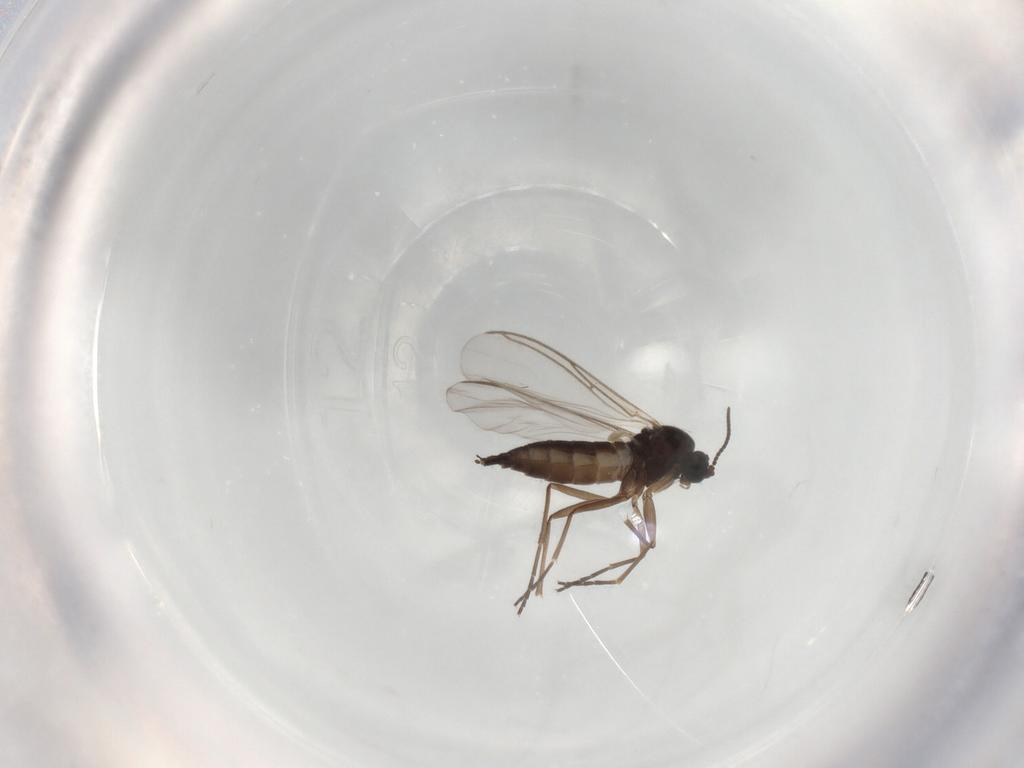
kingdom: Animalia
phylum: Arthropoda
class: Insecta
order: Diptera
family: Sciaridae
